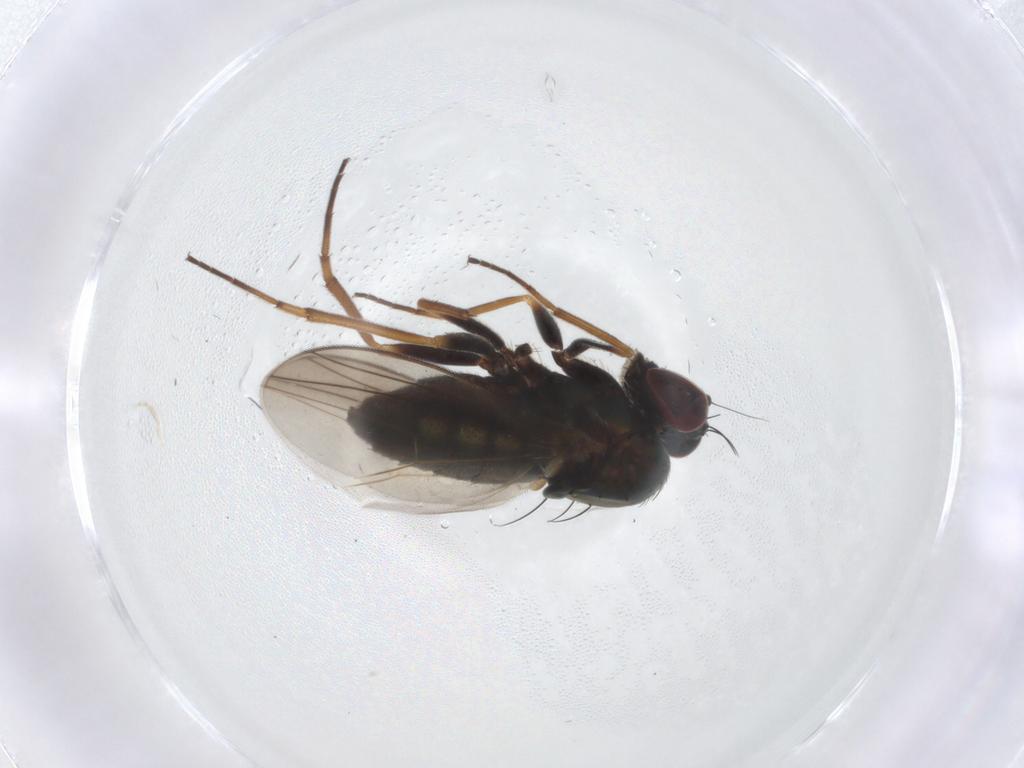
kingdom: Animalia
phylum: Arthropoda
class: Insecta
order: Diptera
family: Dolichopodidae
